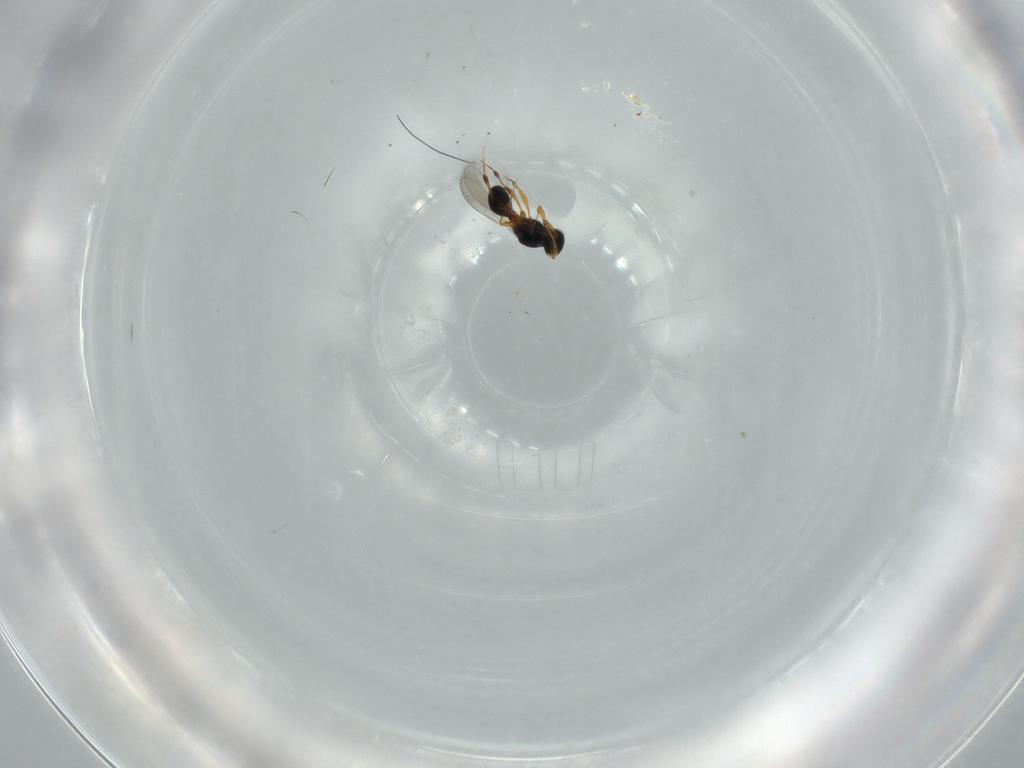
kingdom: Animalia
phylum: Arthropoda
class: Insecta
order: Hymenoptera
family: Platygastridae
